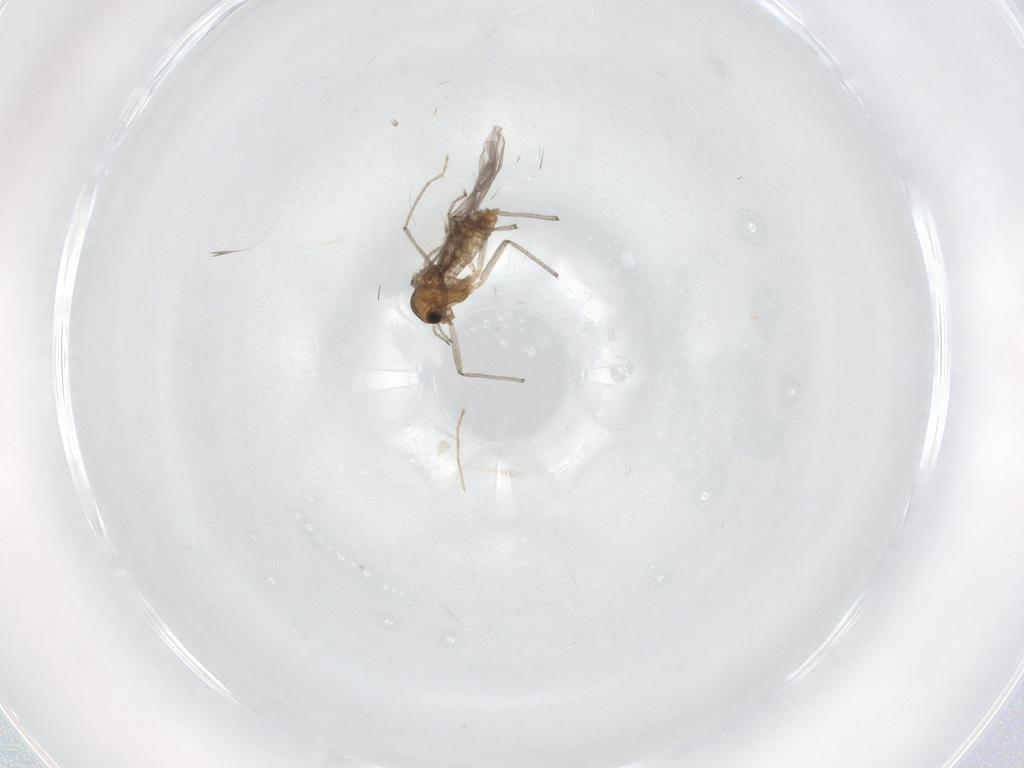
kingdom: Animalia
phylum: Arthropoda
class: Insecta
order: Diptera
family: Chironomidae
